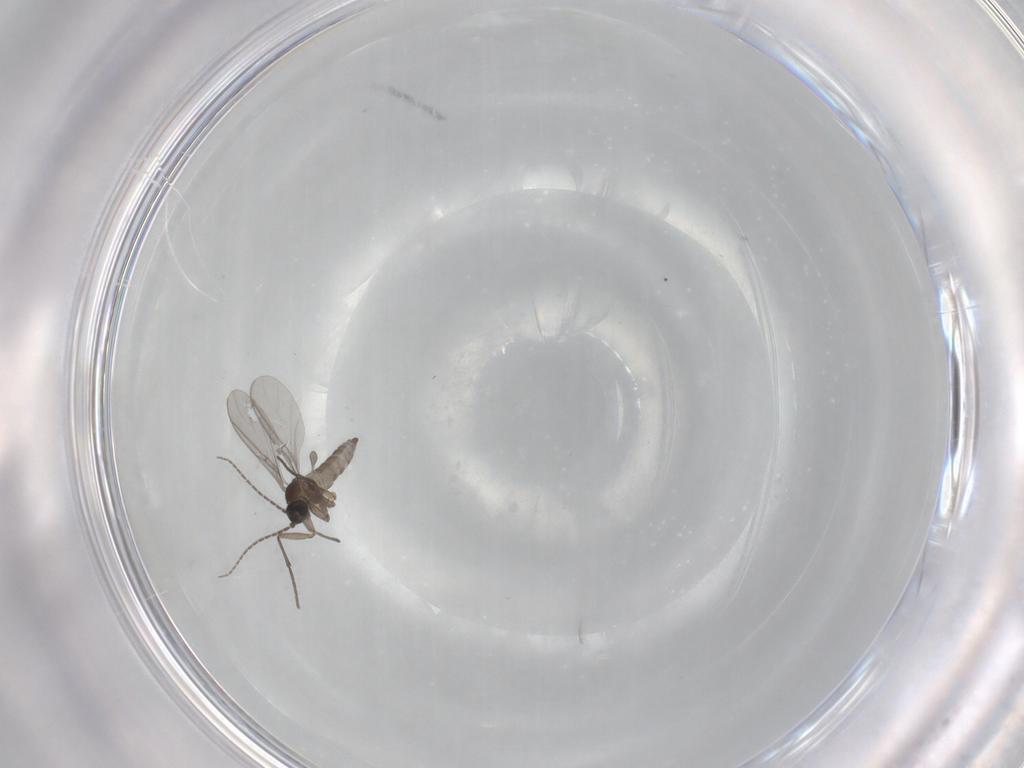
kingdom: Animalia
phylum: Arthropoda
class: Insecta
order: Diptera
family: Sciaridae
